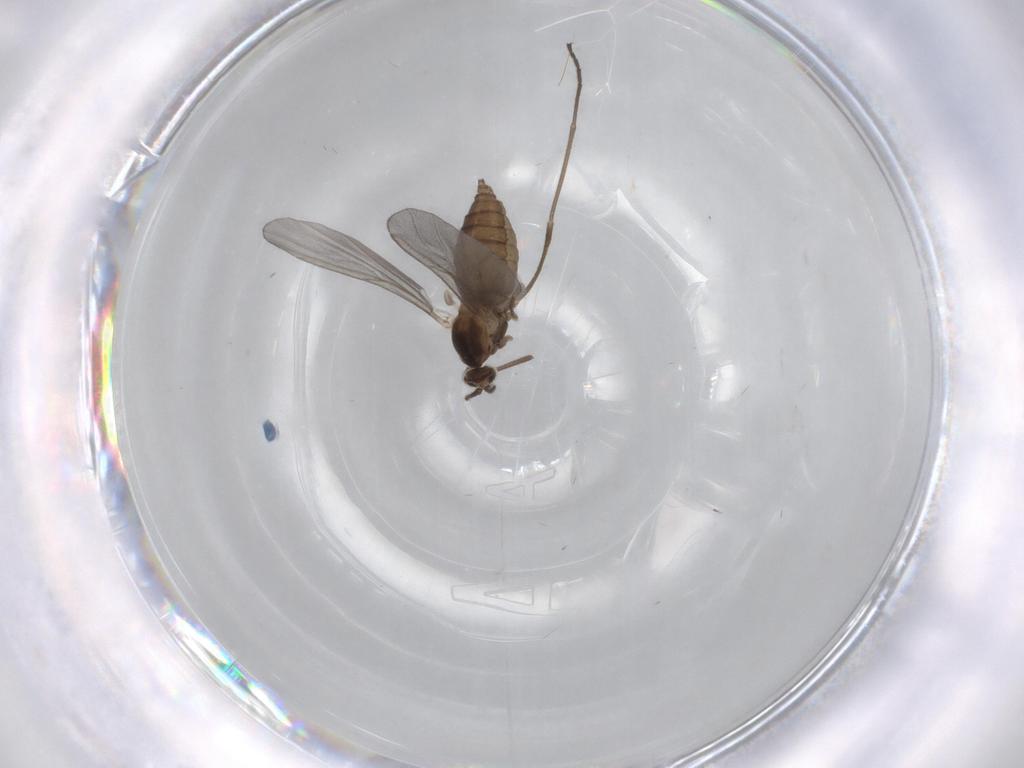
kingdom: Animalia
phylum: Arthropoda
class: Insecta
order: Diptera
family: Cecidomyiidae
